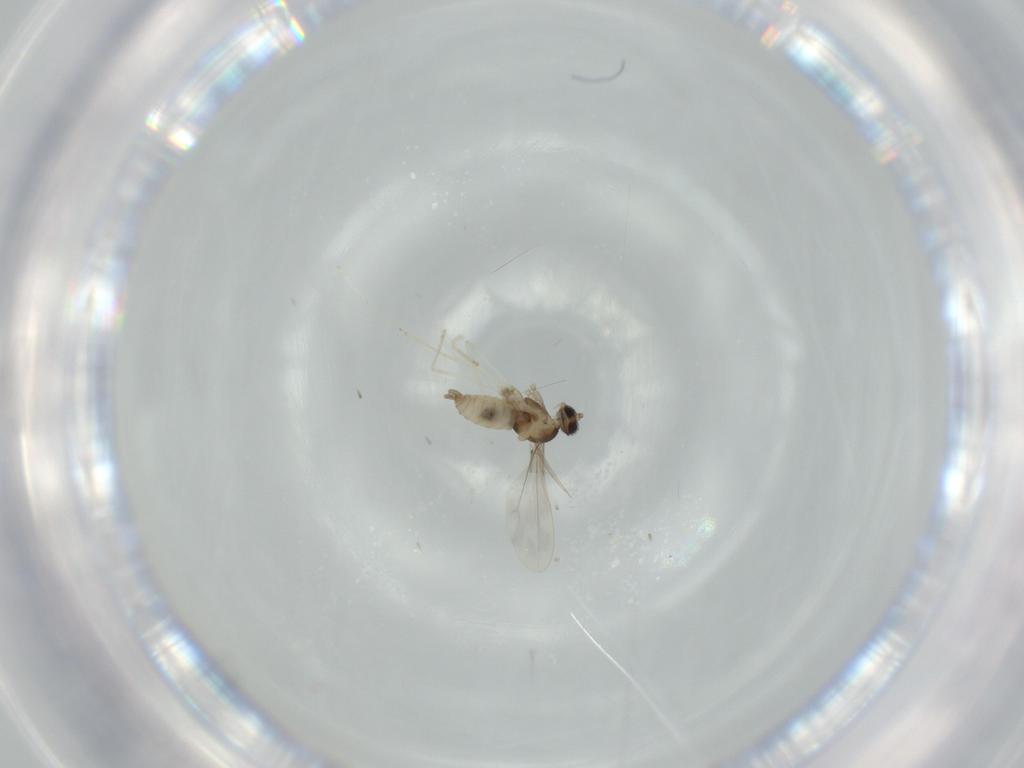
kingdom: Animalia
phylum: Arthropoda
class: Insecta
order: Diptera
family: Cecidomyiidae
